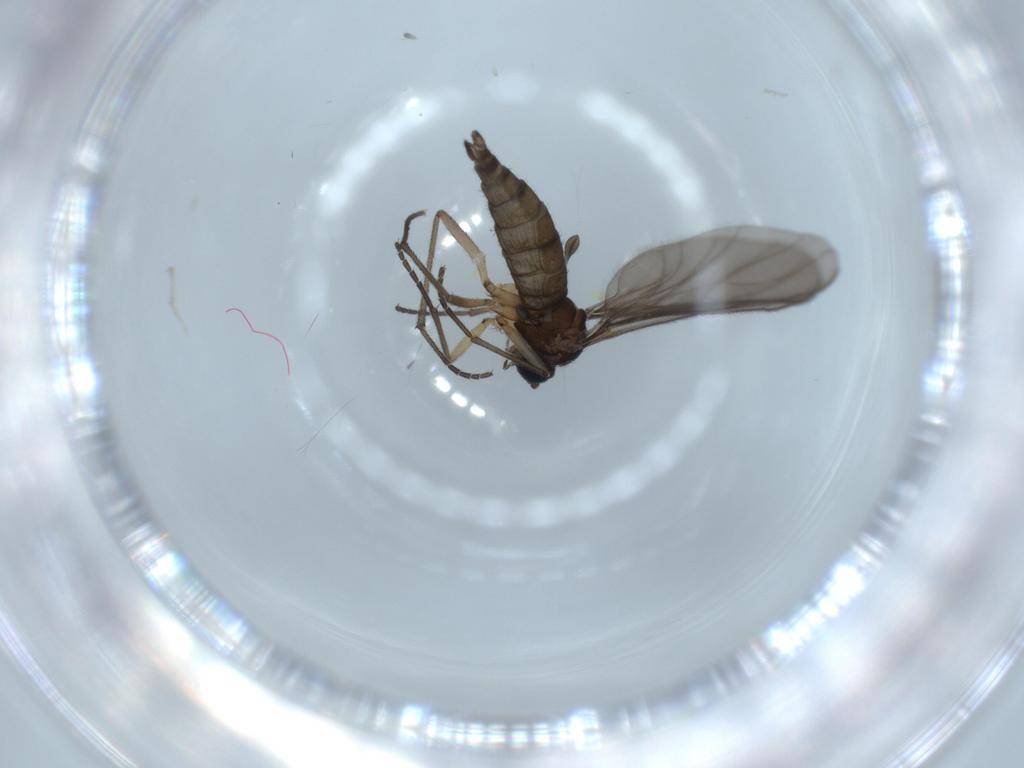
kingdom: Animalia
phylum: Arthropoda
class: Insecta
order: Diptera
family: Sciaridae
